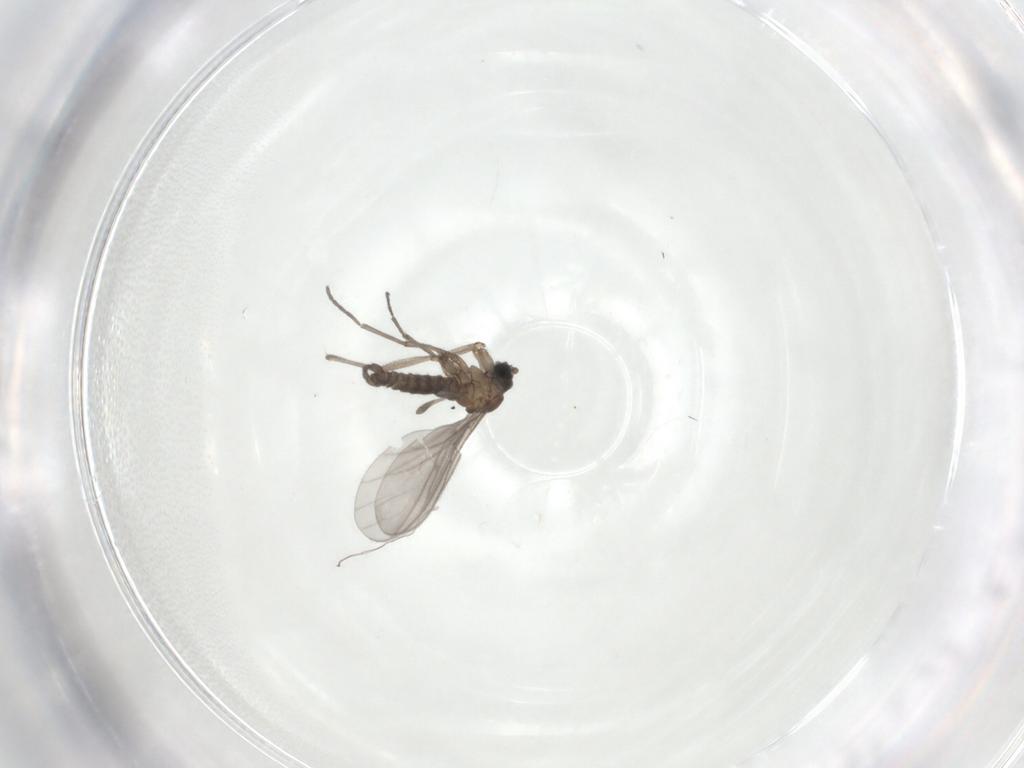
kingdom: Animalia
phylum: Arthropoda
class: Insecta
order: Diptera
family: Sciaridae
